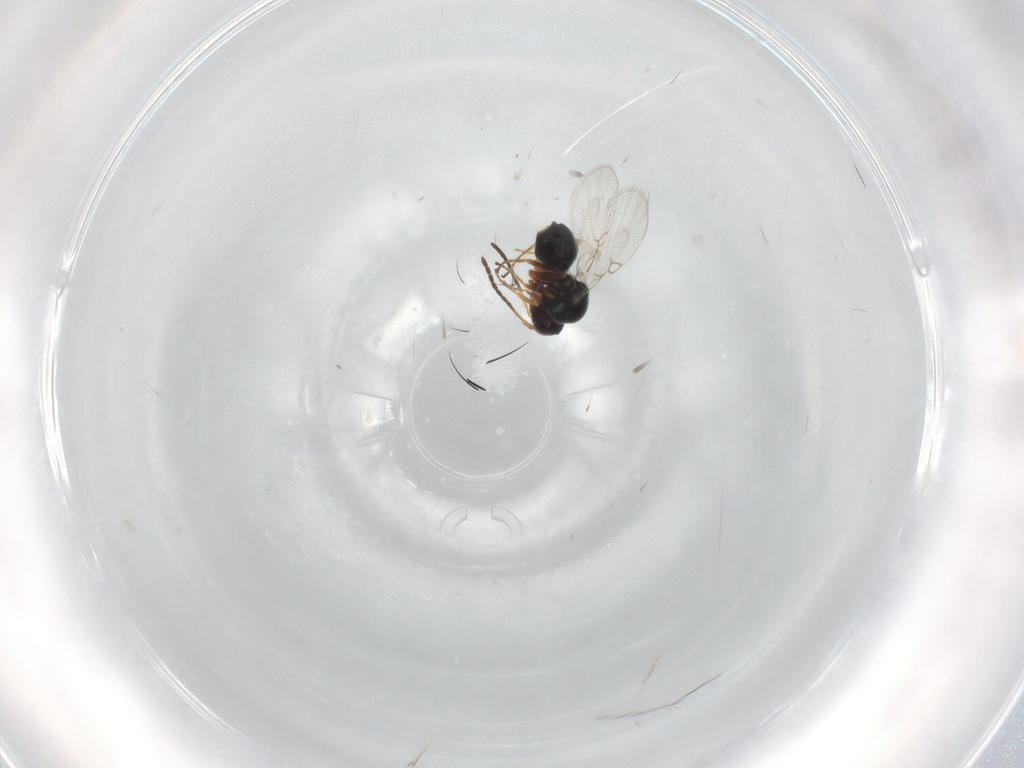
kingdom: Animalia
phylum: Arthropoda
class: Insecta
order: Hymenoptera
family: Figitidae
